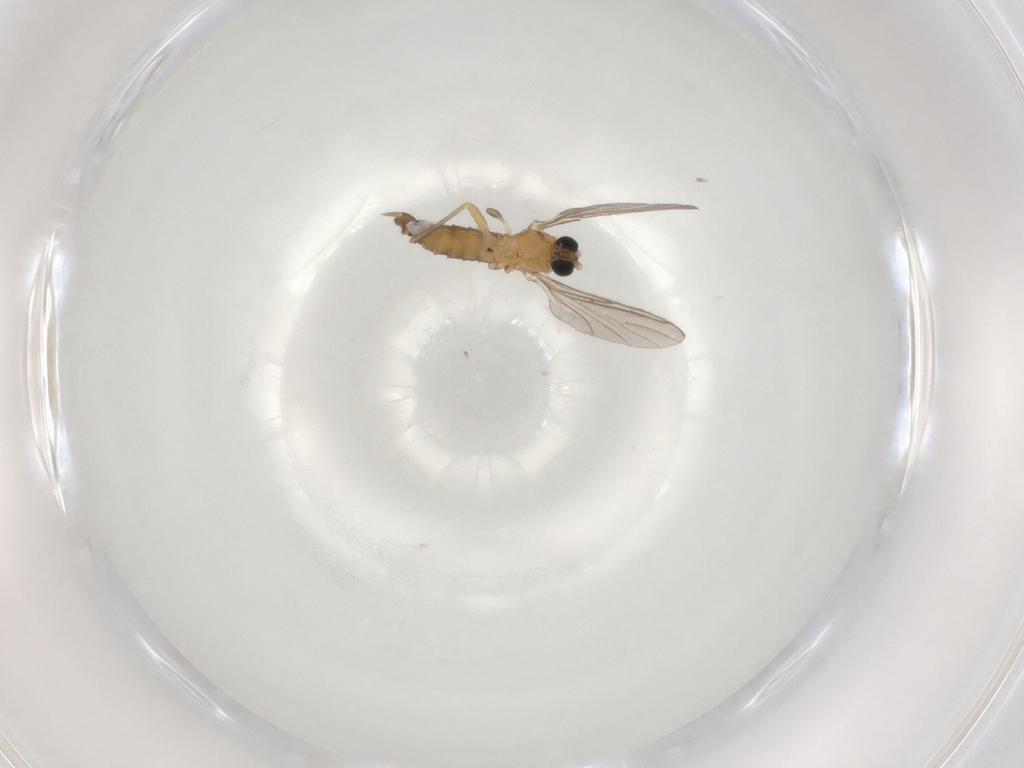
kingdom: Animalia
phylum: Arthropoda
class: Insecta
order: Diptera
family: Sciaridae
